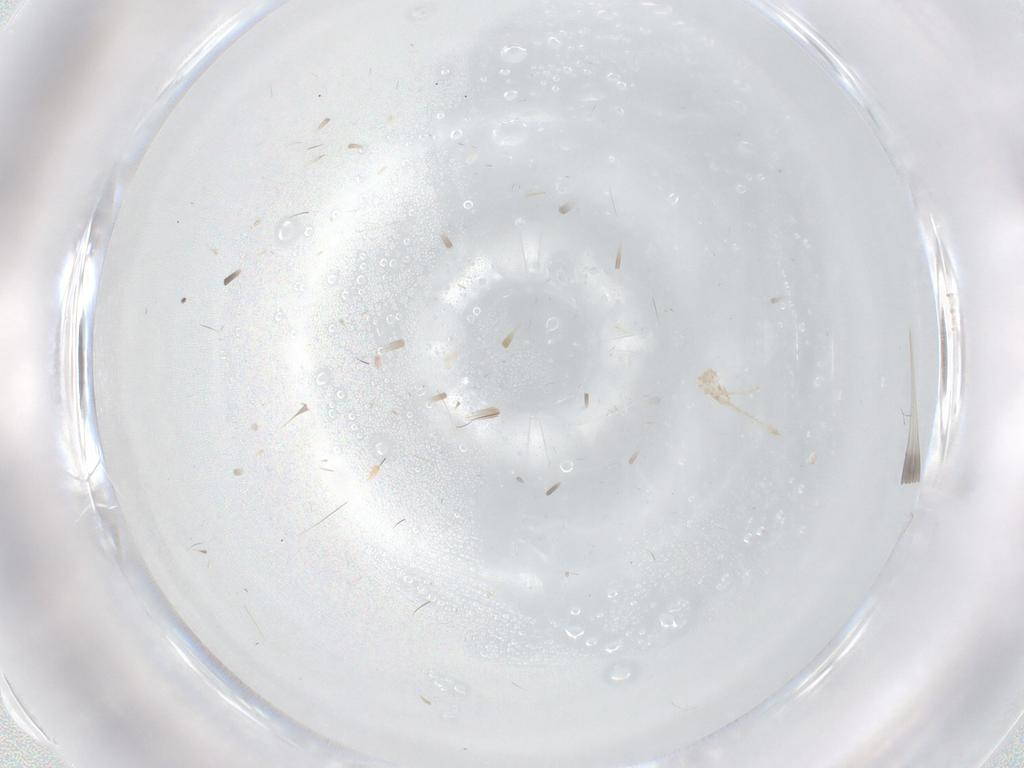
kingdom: Animalia
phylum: Arthropoda
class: Insecta
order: Diptera
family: Sciaridae
